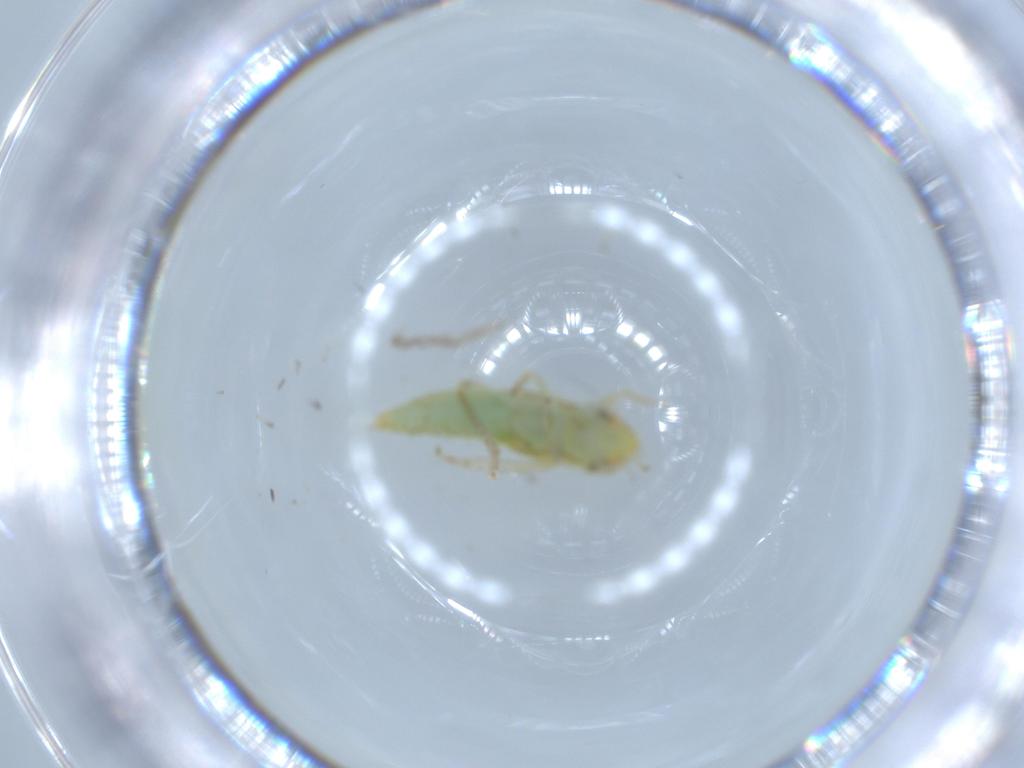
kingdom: Animalia
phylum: Arthropoda
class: Insecta
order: Hemiptera
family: Cicadellidae
